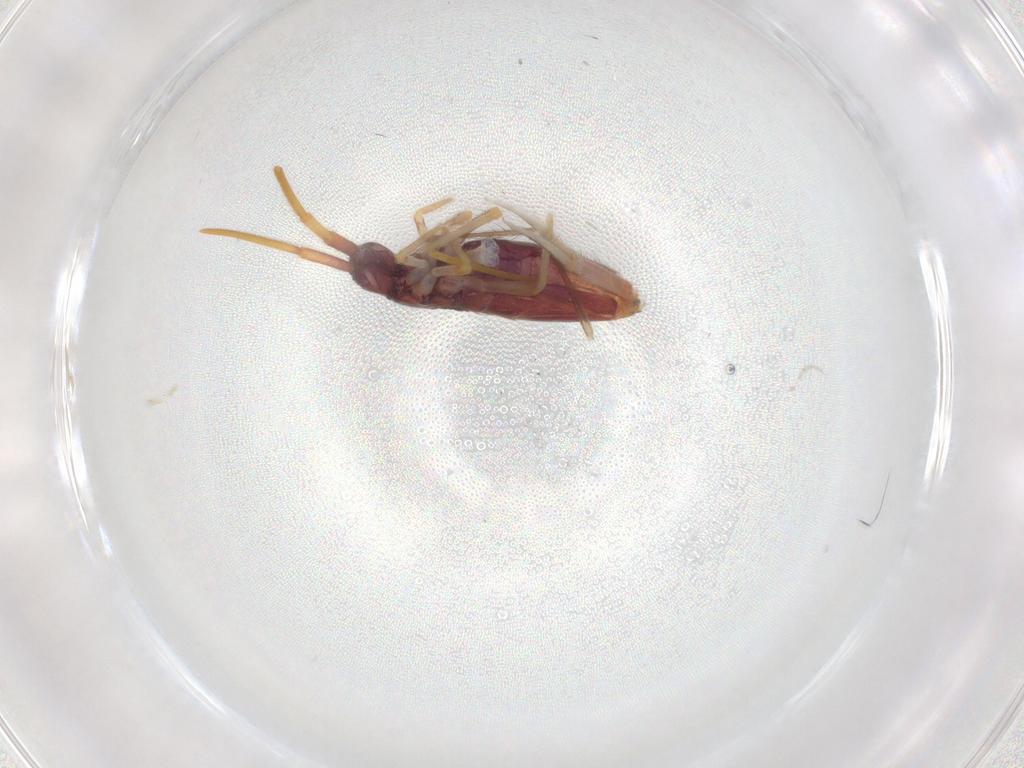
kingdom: Animalia
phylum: Arthropoda
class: Collembola
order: Entomobryomorpha
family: Entomobryidae
